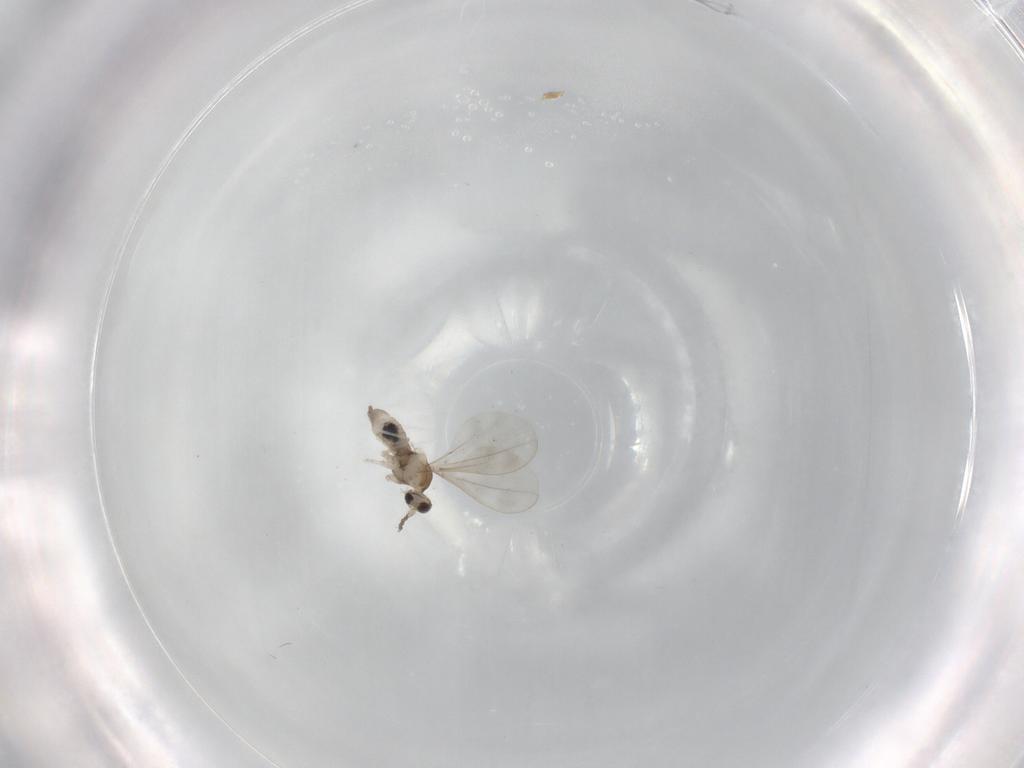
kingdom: Animalia
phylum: Arthropoda
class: Insecta
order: Diptera
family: Cecidomyiidae
